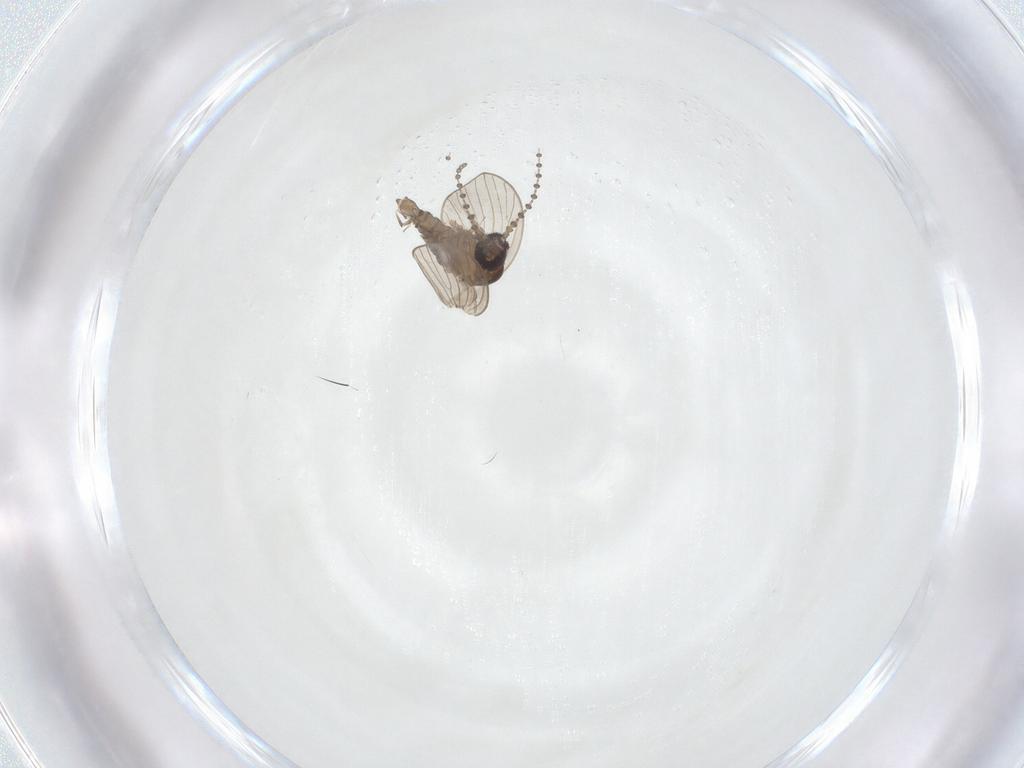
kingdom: Animalia
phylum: Arthropoda
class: Insecta
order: Diptera
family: Psychodidae
